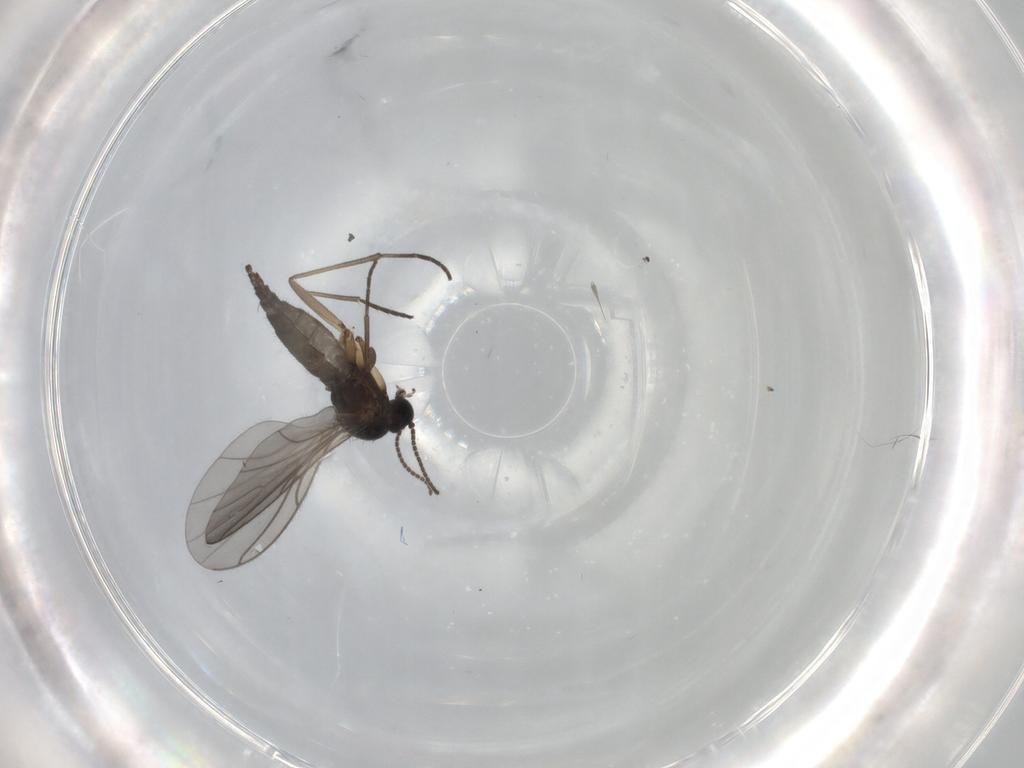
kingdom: Animalia
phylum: Arthropoda
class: Insecta
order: Diptera
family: Sciaridae
